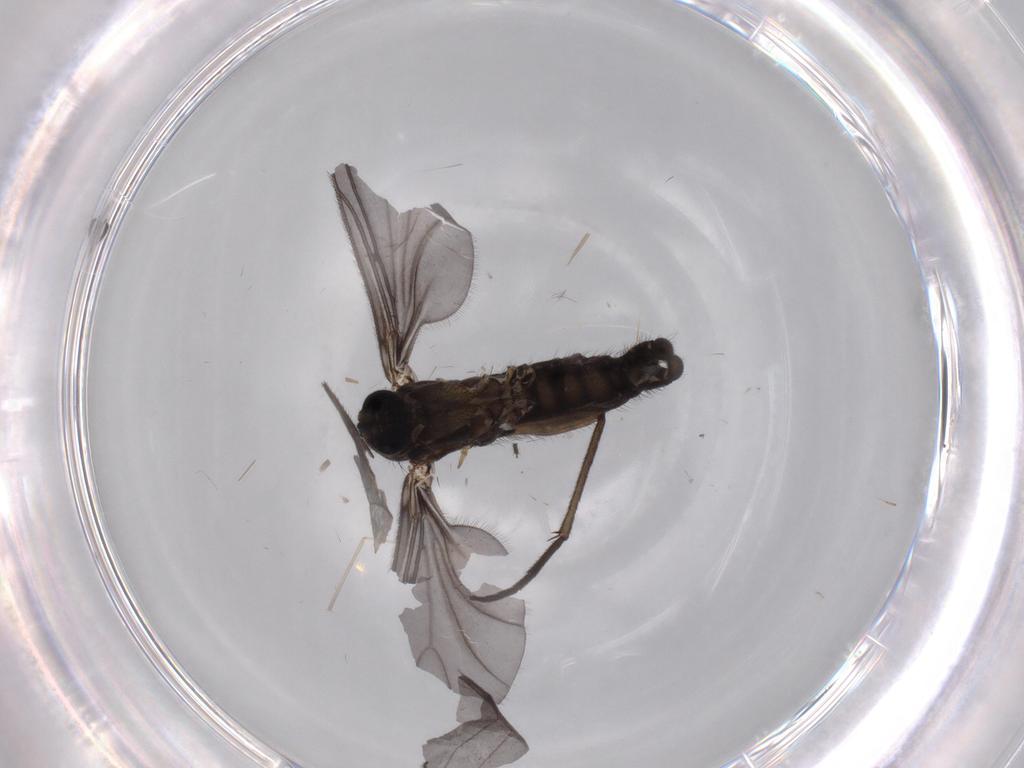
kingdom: Animalia
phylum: Arthropoda
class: Insecta
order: Diptera
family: Sciaridae
